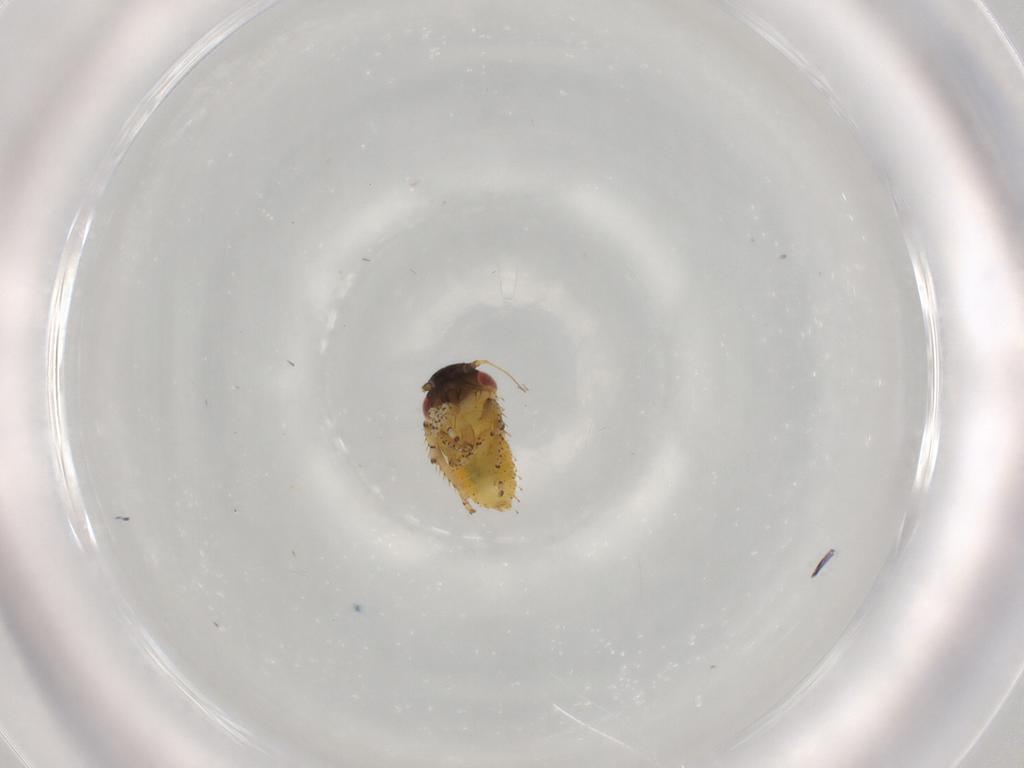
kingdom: Animalia
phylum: Arthropoda
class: Insecta
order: Hemiptera
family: Cicadellidae
